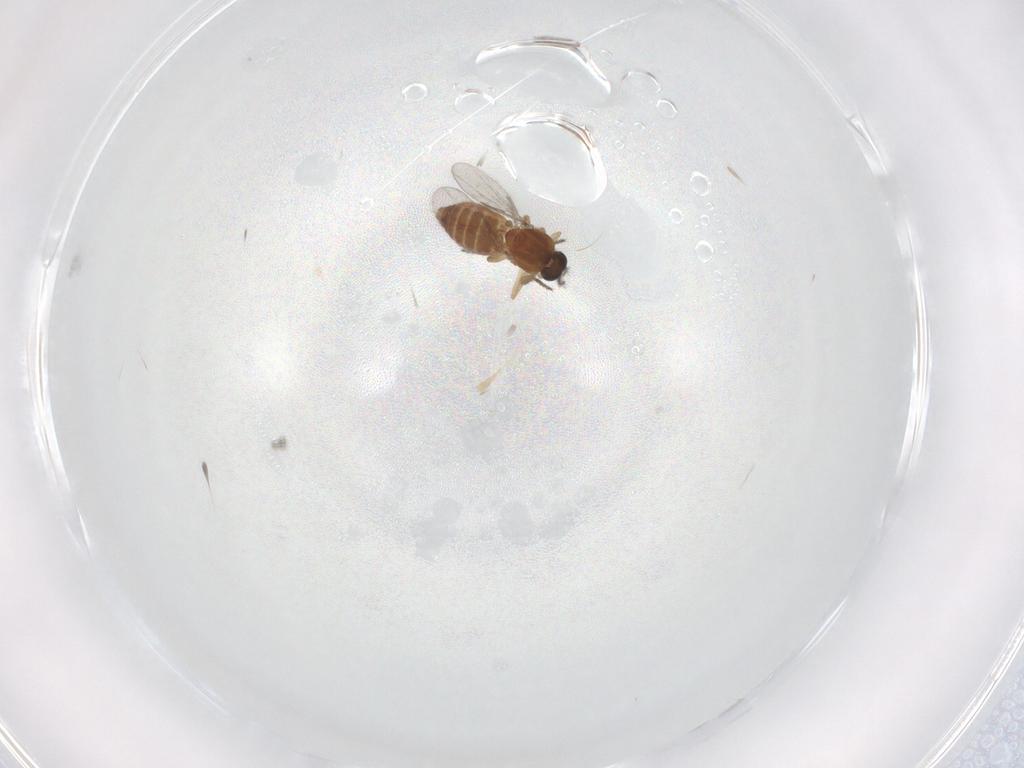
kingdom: Animalia
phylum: Arthropoda
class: Insecta
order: Diptera
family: Ceratopogonidae
